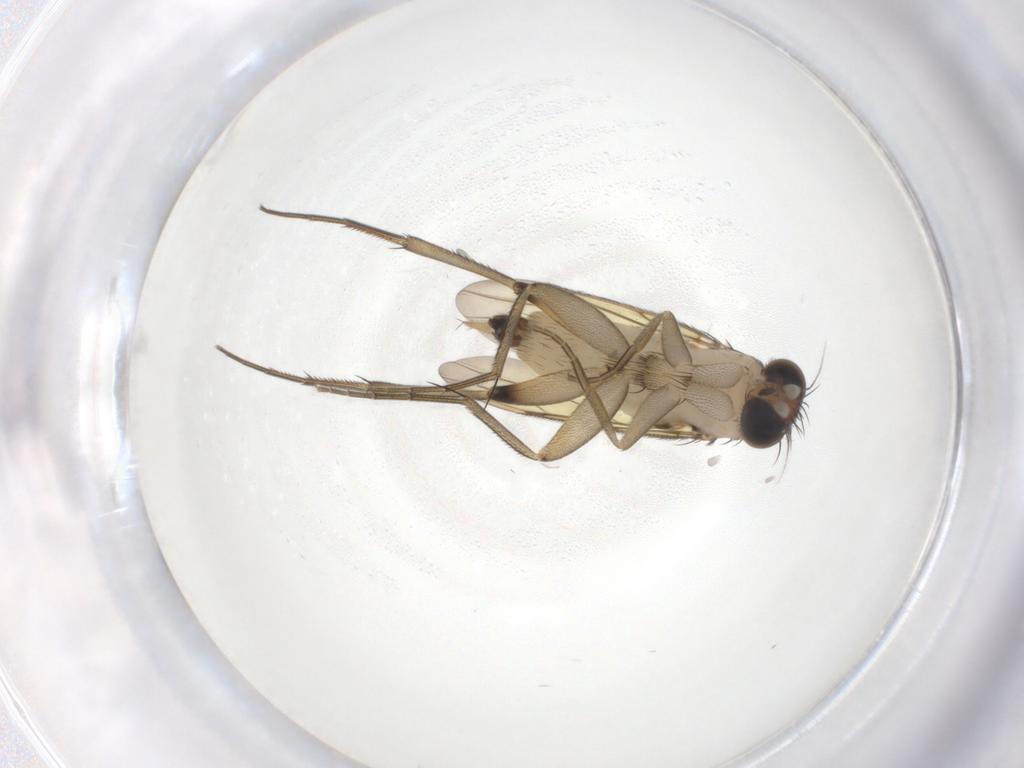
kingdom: Animalia
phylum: Arthropoda
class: Insecta
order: Diptera
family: Phoridae
